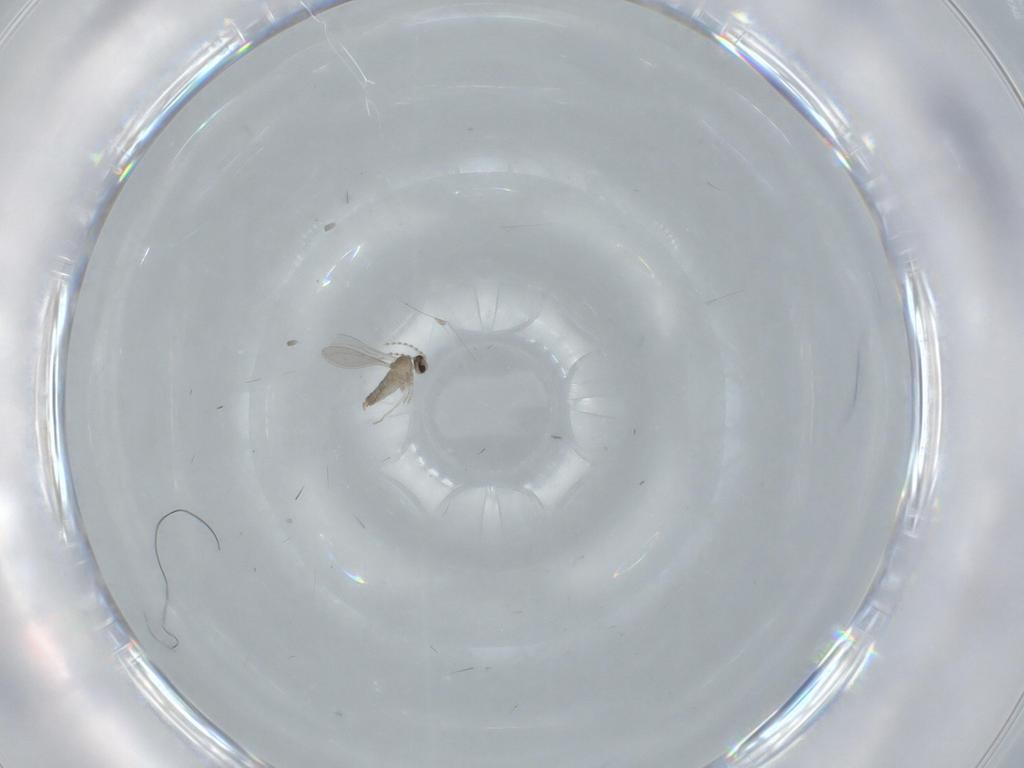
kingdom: Animalia
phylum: Arthropoda
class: Insecta
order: Diptera
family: Cecidomyiidae
